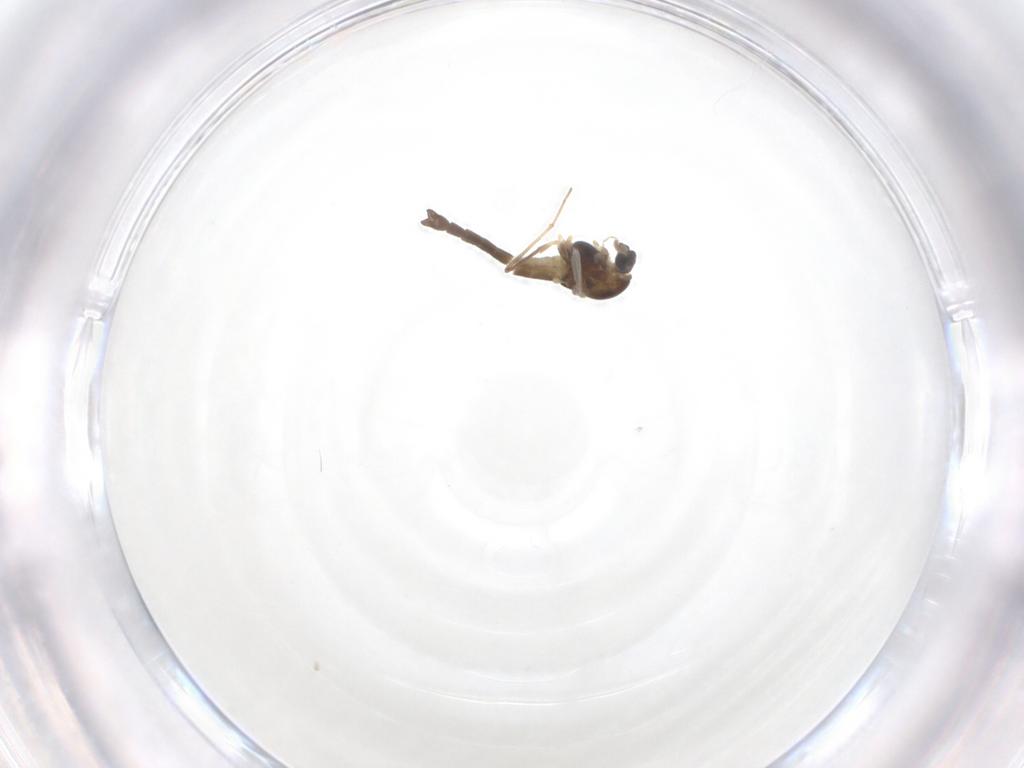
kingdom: Animalia
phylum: Arthropoda
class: Insecta
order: Diptera
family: Chironomidae
